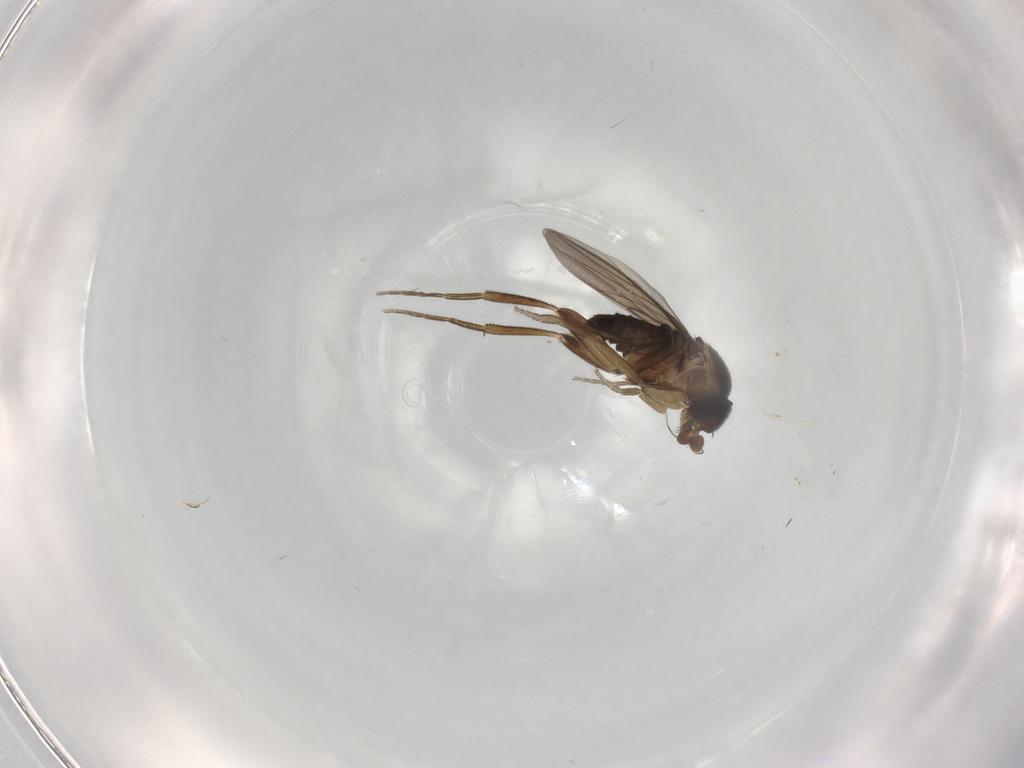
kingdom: Animalia
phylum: Arthropoda
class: Insecta
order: Diptera
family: Phoridae
